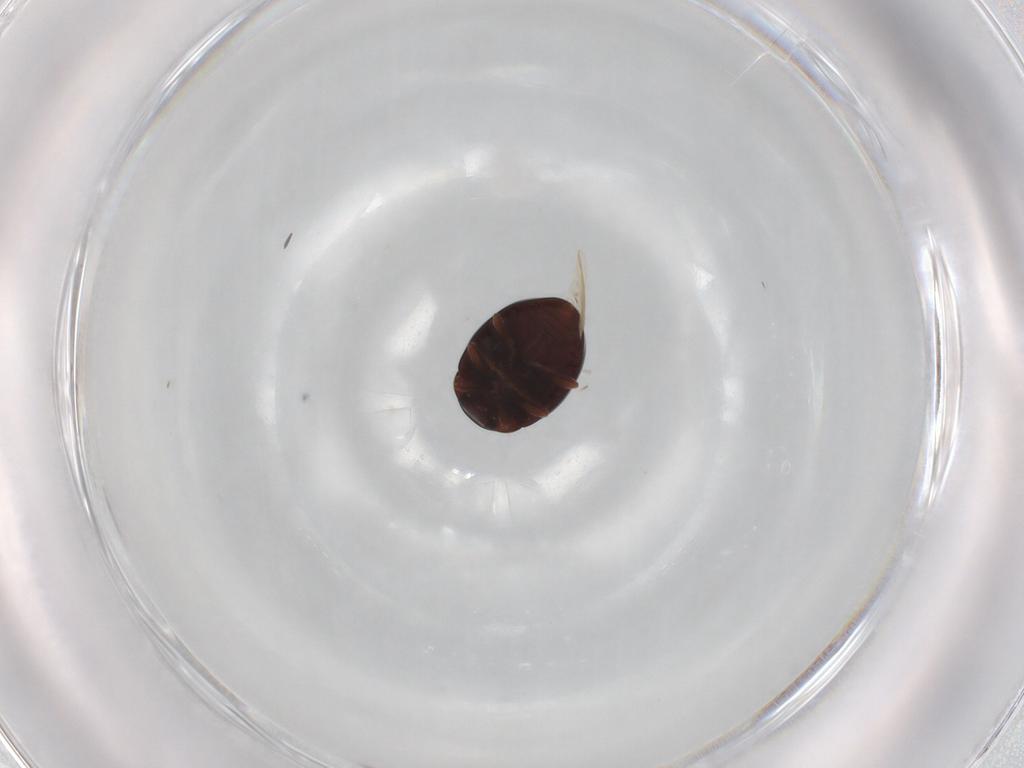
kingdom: Animalia
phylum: Arthropoda
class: Insecta
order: Coleoptera
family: Coccinellidae
